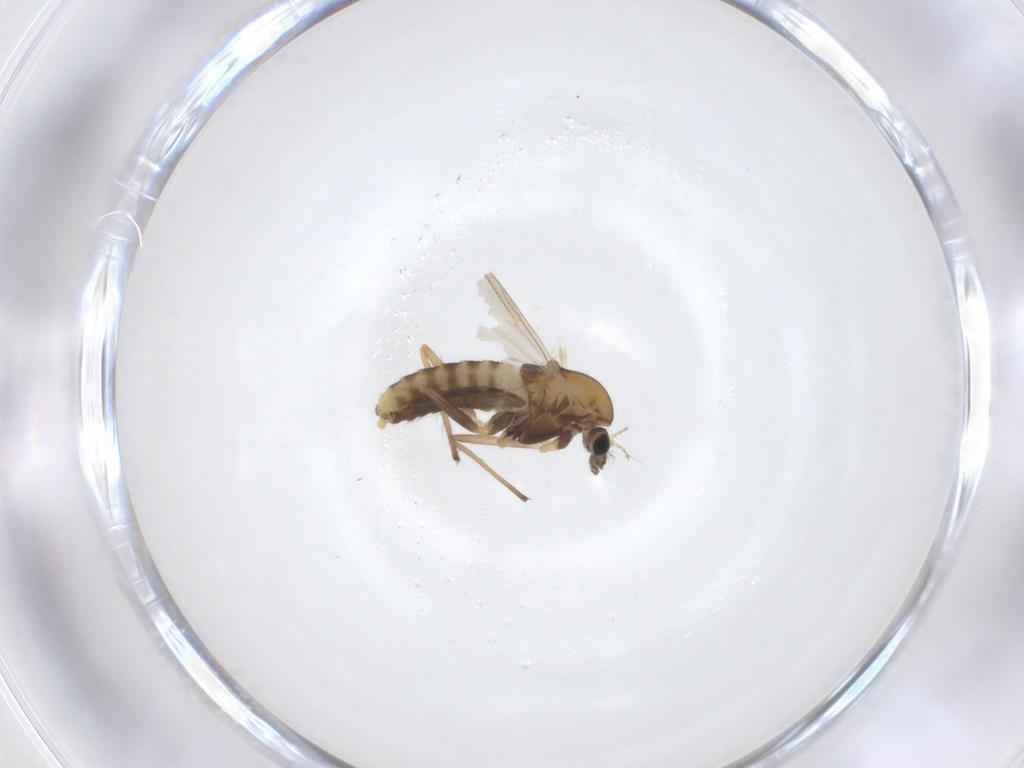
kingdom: Animalia
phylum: Arthropoda
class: Insecta
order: Diptera
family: Chironomidae
